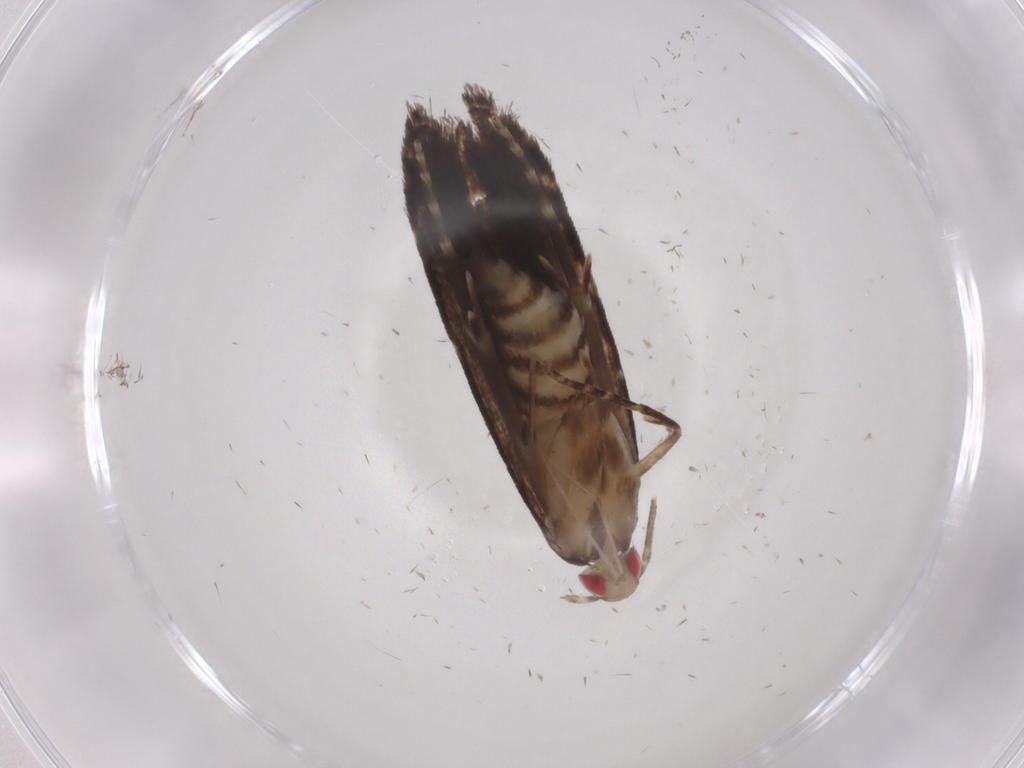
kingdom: Animalia
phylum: Arthropoda
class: Insecta
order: Lepidoptera
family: Gelechiidae
